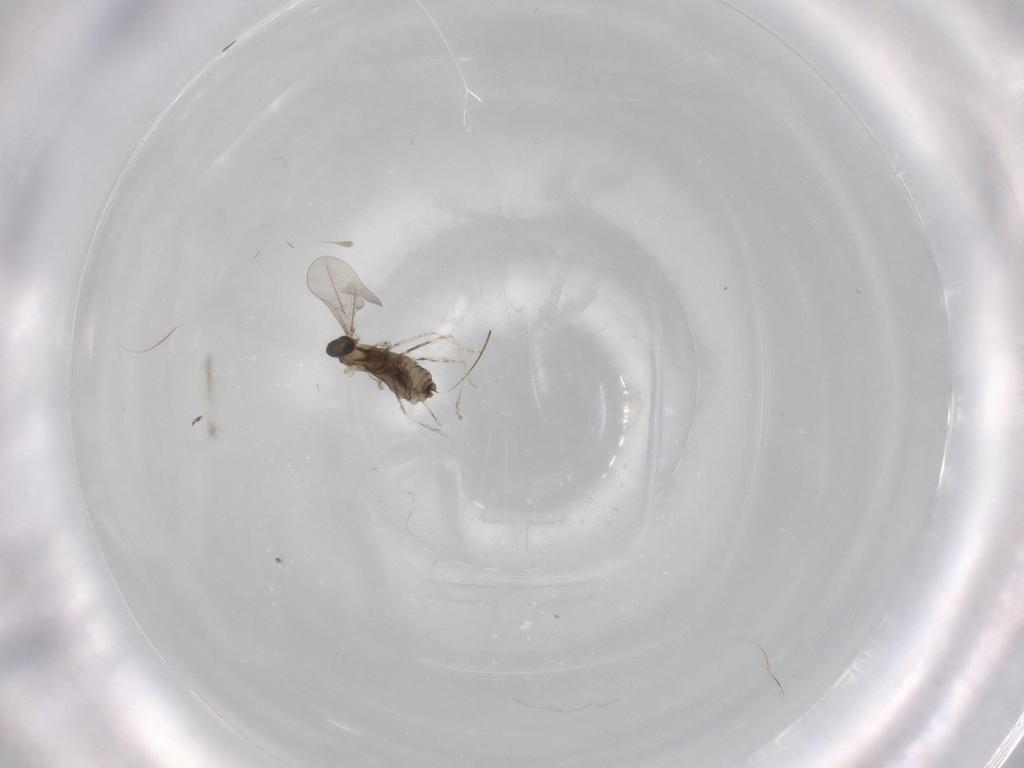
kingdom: Animalia
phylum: Arthropoda
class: Insecta
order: Diptera
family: Cecidomyiidae
